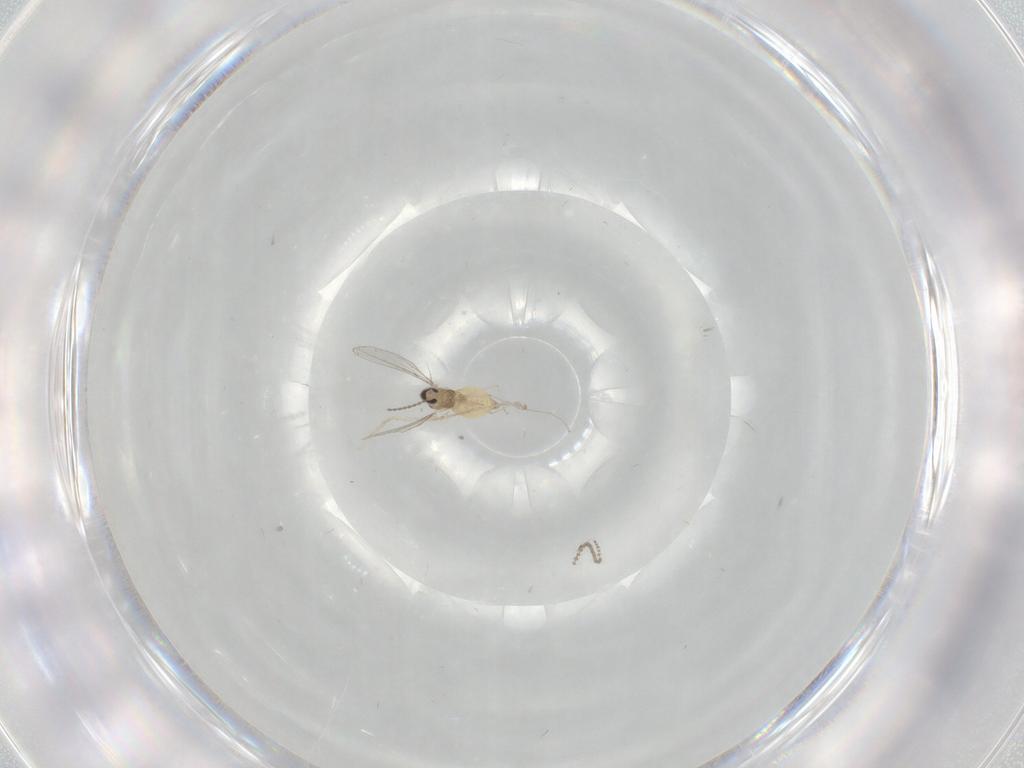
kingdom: Animalia
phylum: Arthropoda
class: Insecta
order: Diptera
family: Cecidomyiidae
